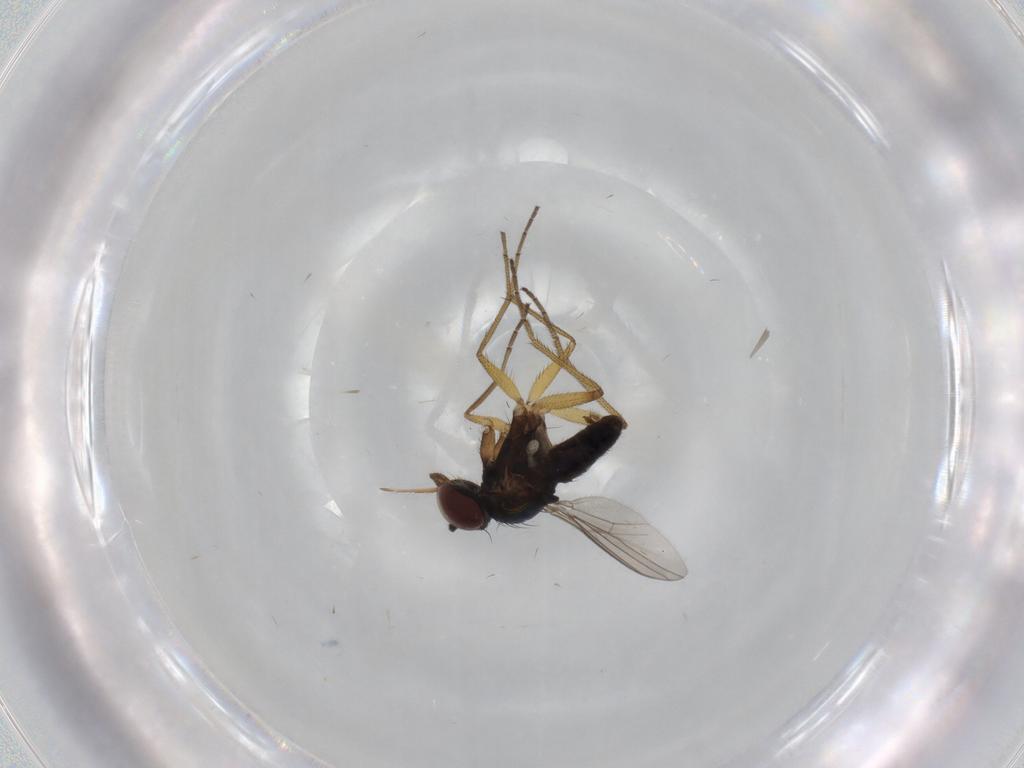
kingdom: Animalia
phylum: Arthropoda
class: Insecta
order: Diptera
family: Dolichopodidae
